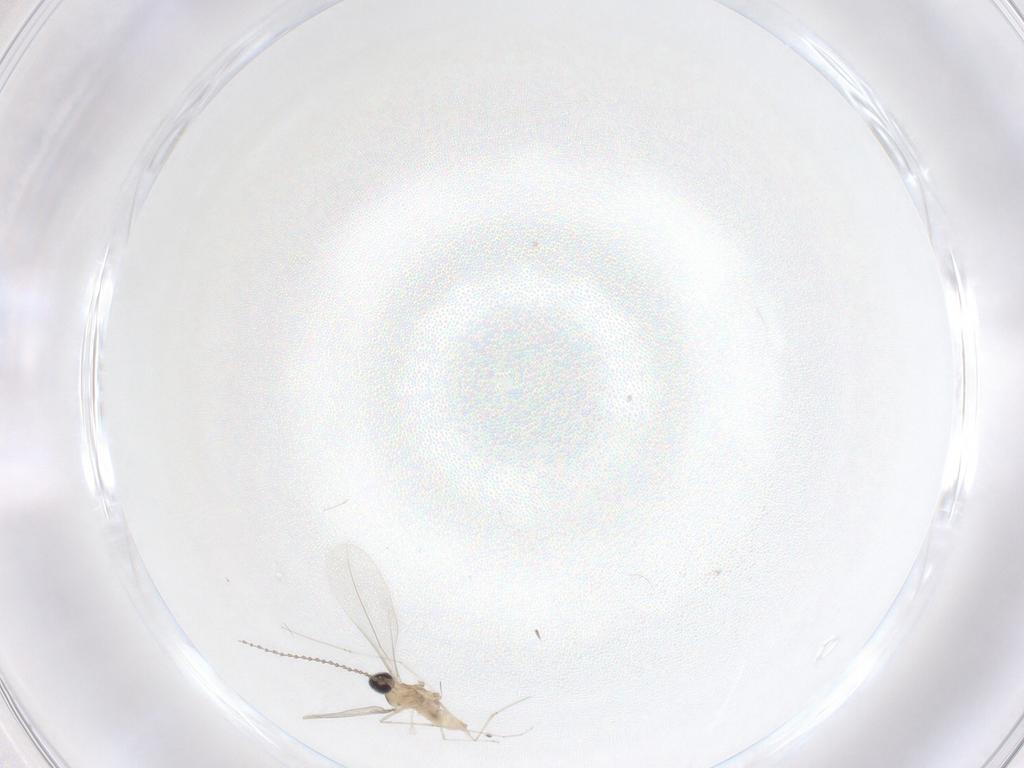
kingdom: Animalia
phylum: Arthropoda
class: Insecta
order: Diptera
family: Cecidomyiidae
